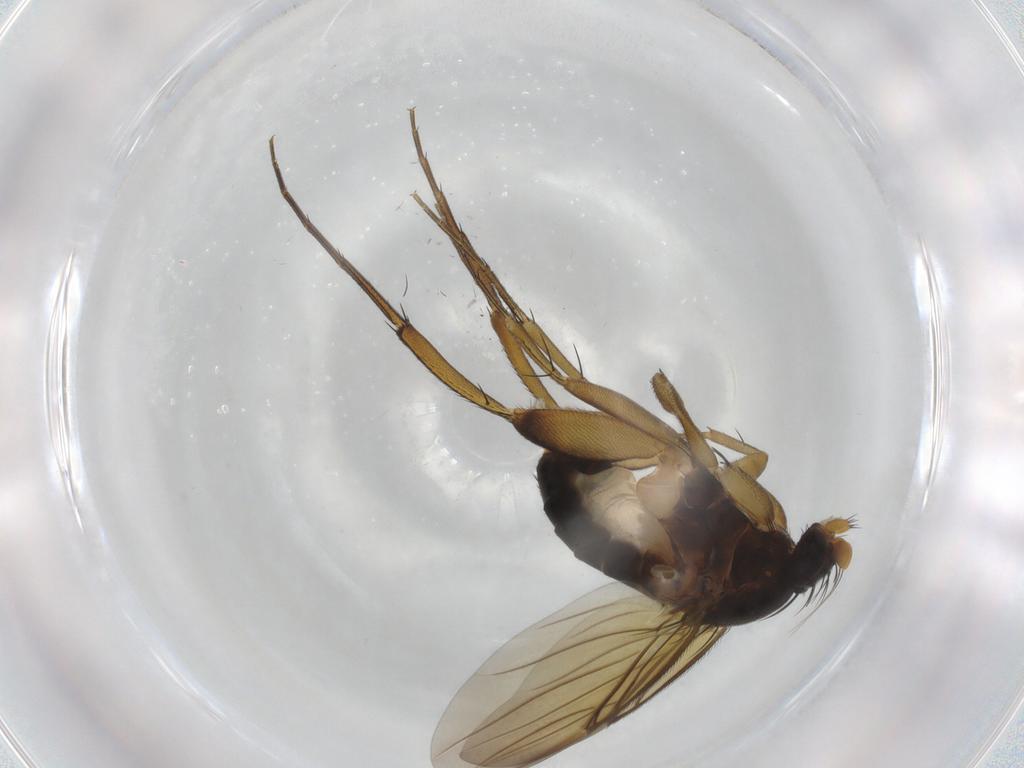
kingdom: Animalia
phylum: Arthropoda
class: Insecta
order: Diptera
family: Phoridae
